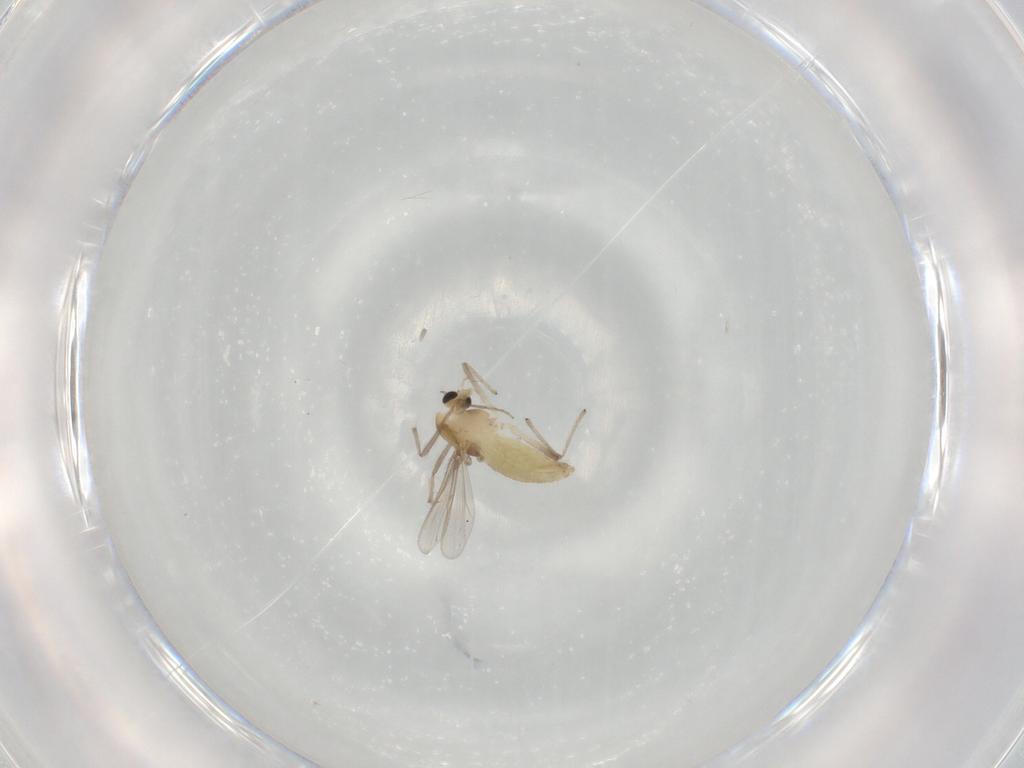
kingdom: Animalia
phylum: Arthropoda
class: Insecta
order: Diptera
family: Chironomidae
